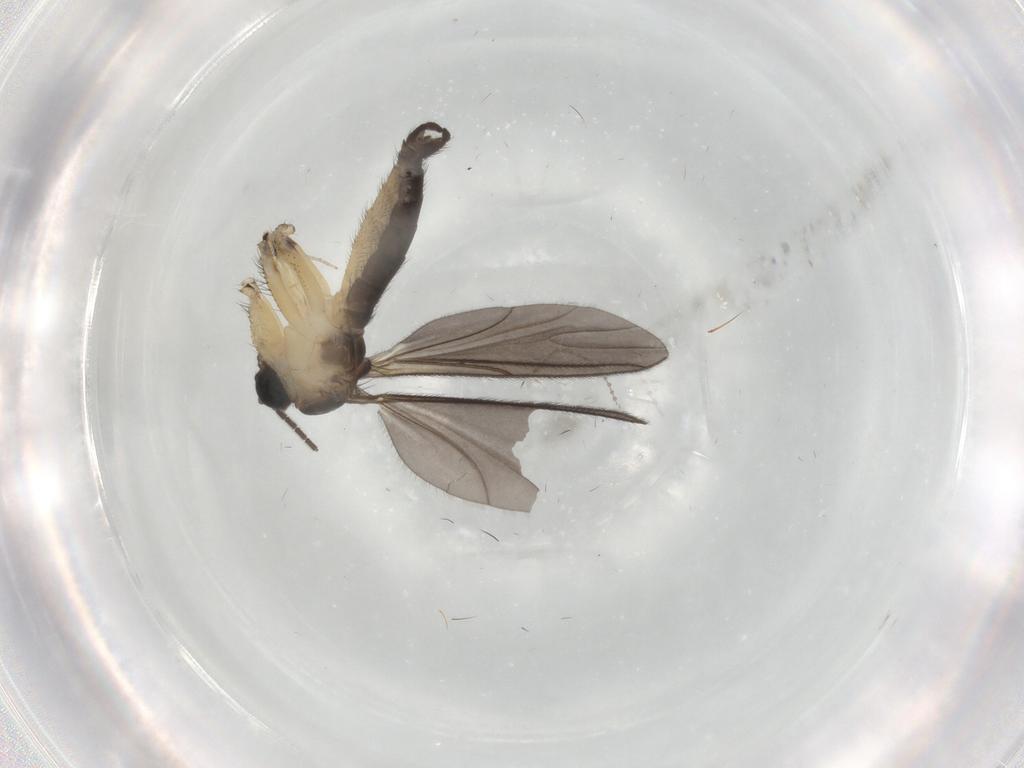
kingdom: Animalia
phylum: Arthropoda
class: Insecta
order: Diptera
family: Sciaridae
